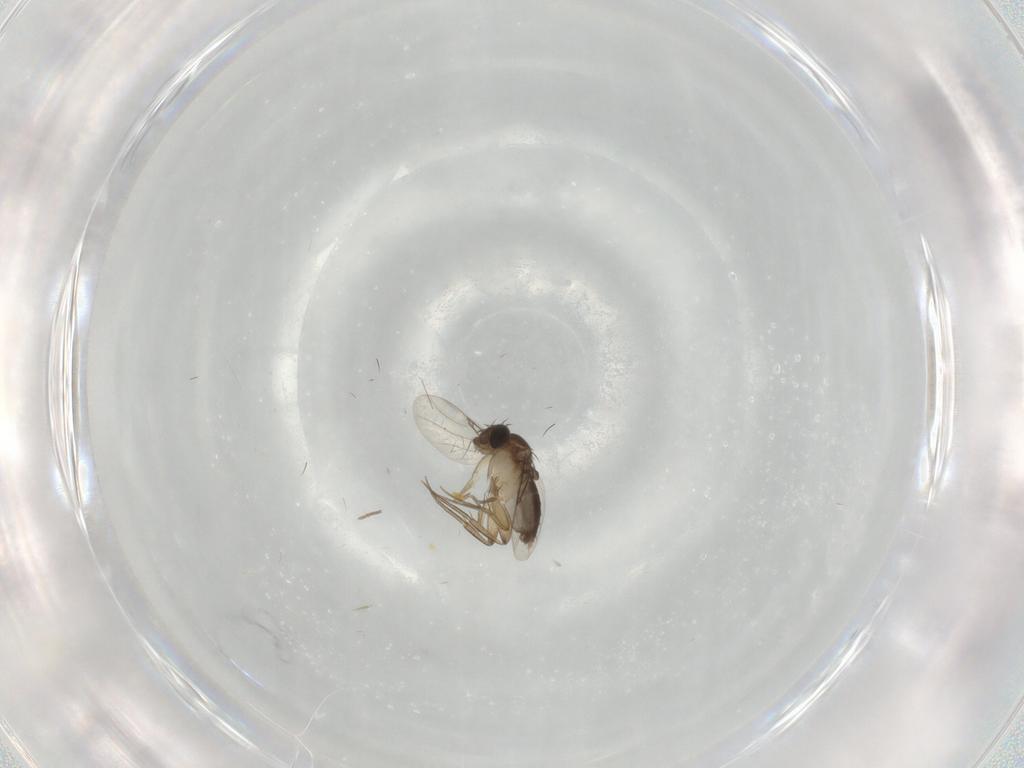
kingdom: Animalia
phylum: Arthropoda
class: Insecta
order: Diptera
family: Phoridae
